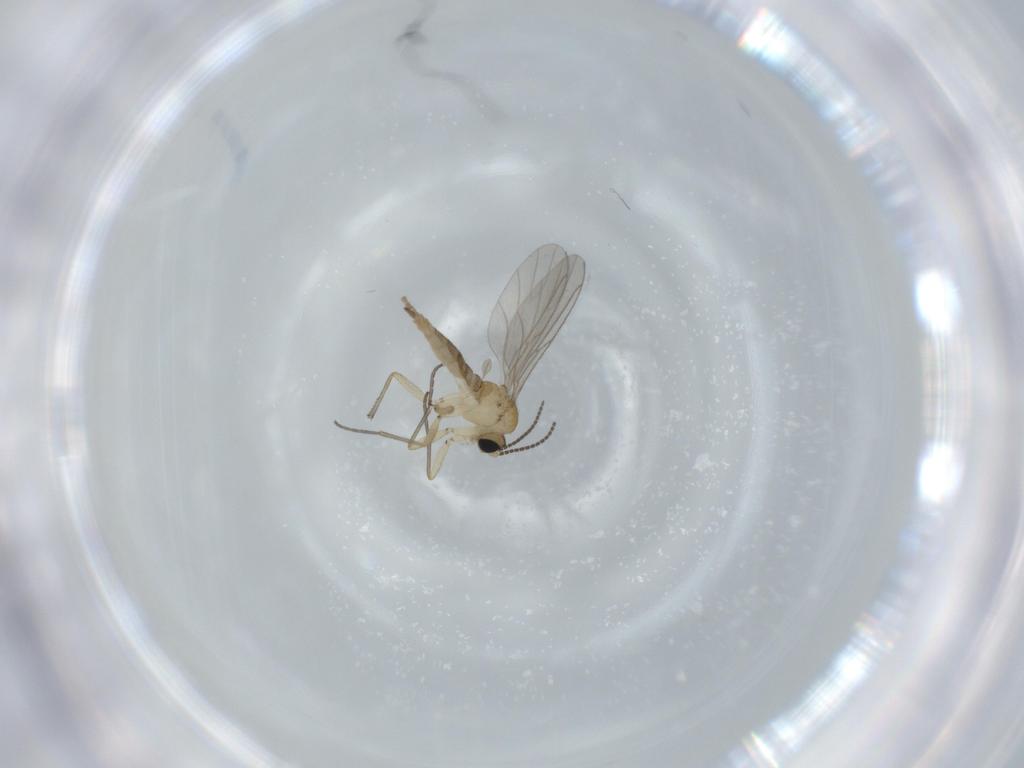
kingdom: Animalia
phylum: Arthropoda
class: Insecta
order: Diptera
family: Sciaridae
